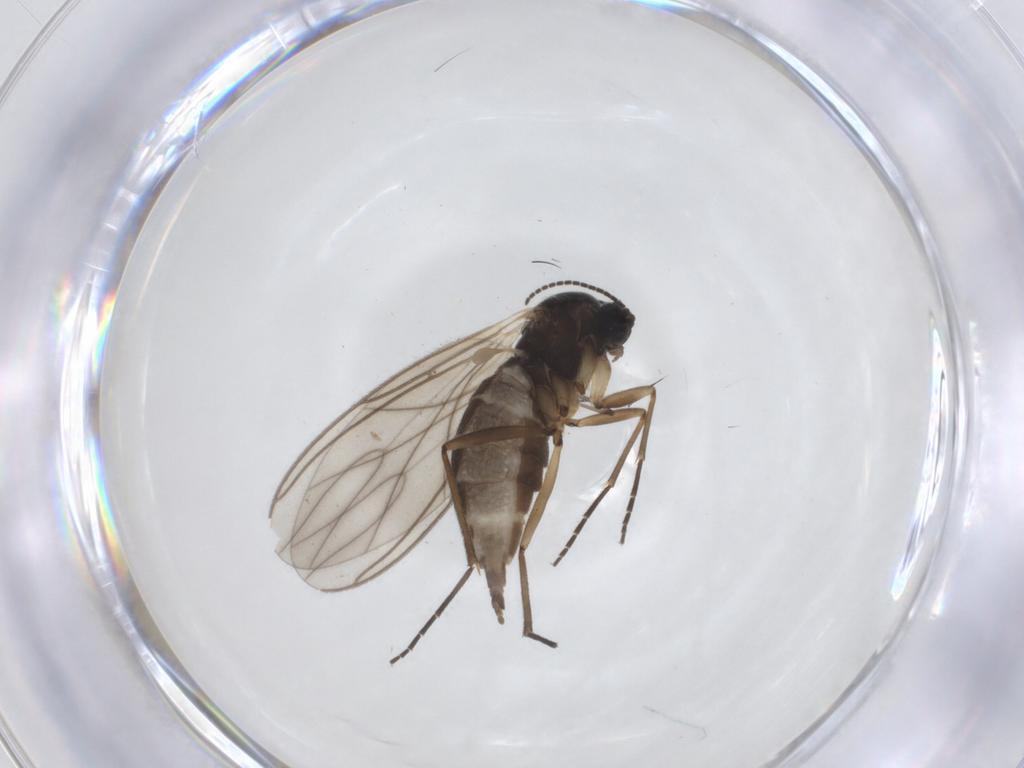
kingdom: Animalia
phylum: Arthropoda
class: Insecta
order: Diptera
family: Sciaridae
